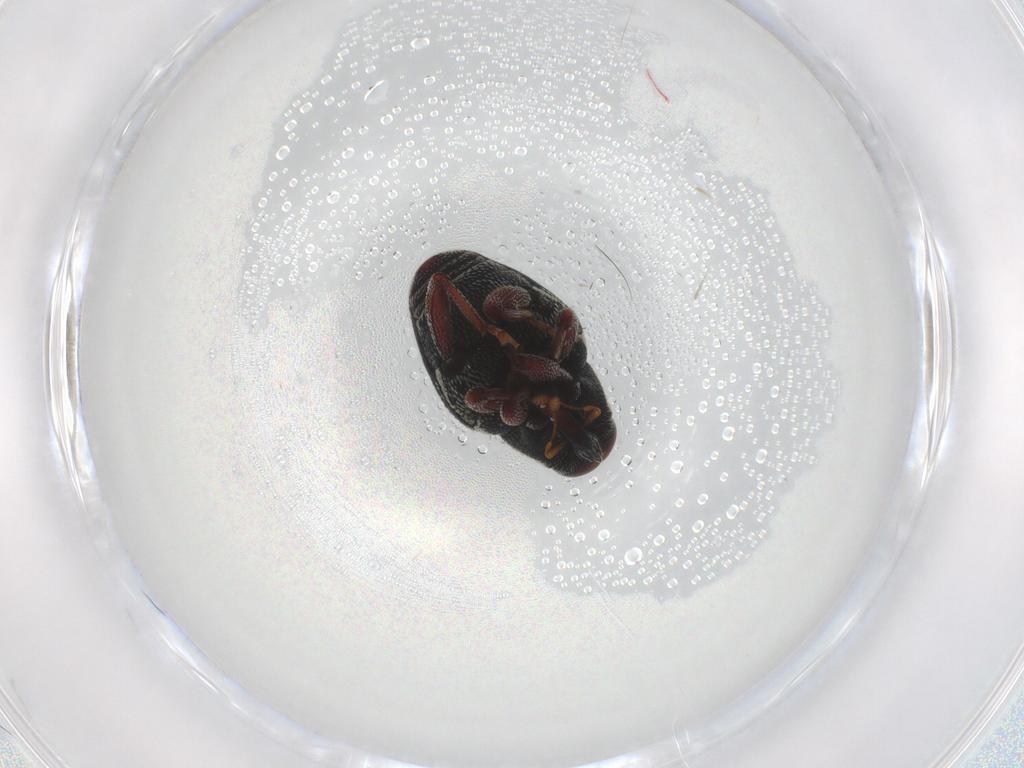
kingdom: Animalia
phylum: Arthropoda
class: Insecta
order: Coleoptera
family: Curculionidae
